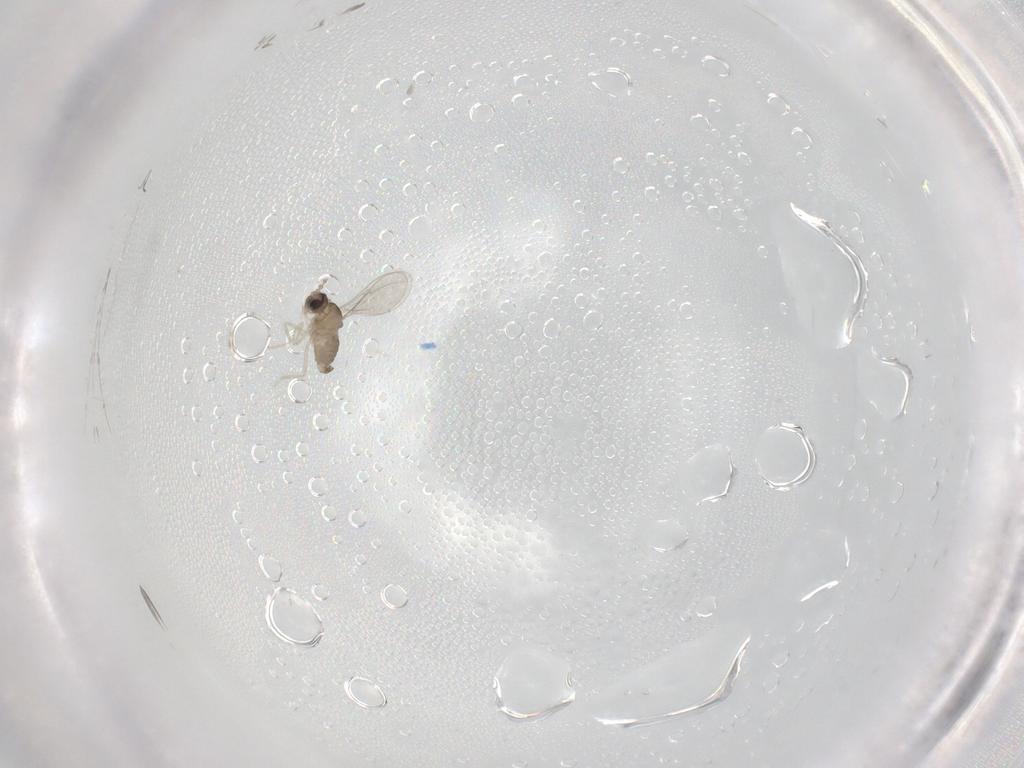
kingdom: Animalia
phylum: Arthropoda
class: Insecta
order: Diptera
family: Cecidomyiidae
